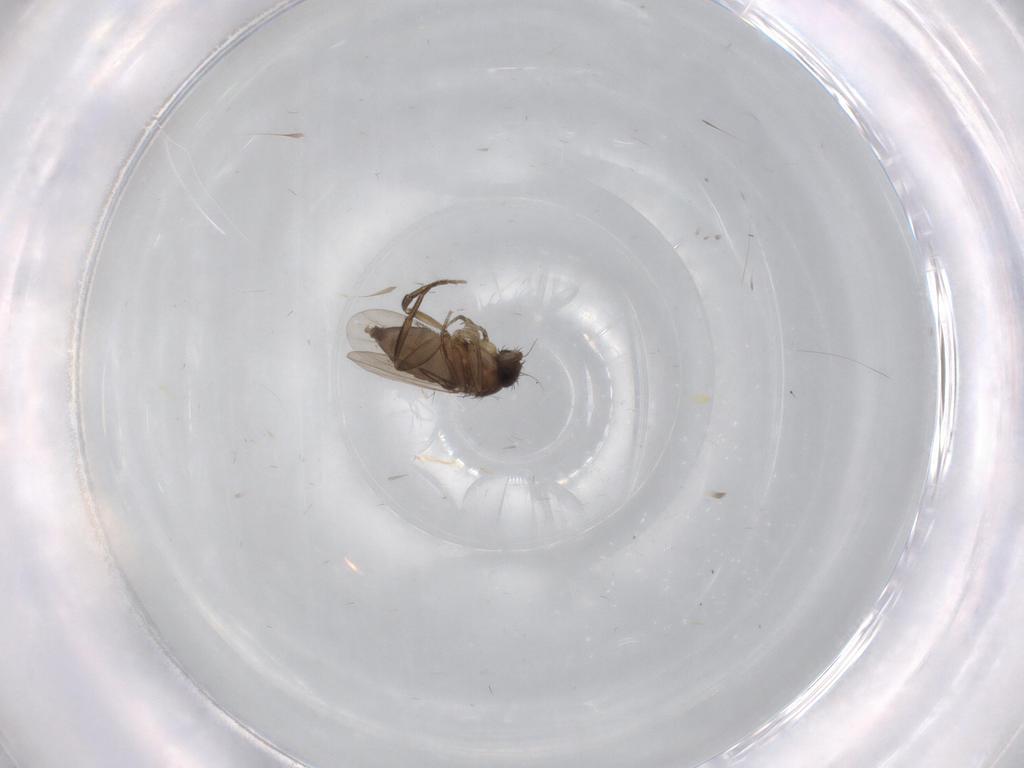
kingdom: Animalia
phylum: Arthropoda
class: Insecta
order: Diptera
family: Phoridae
